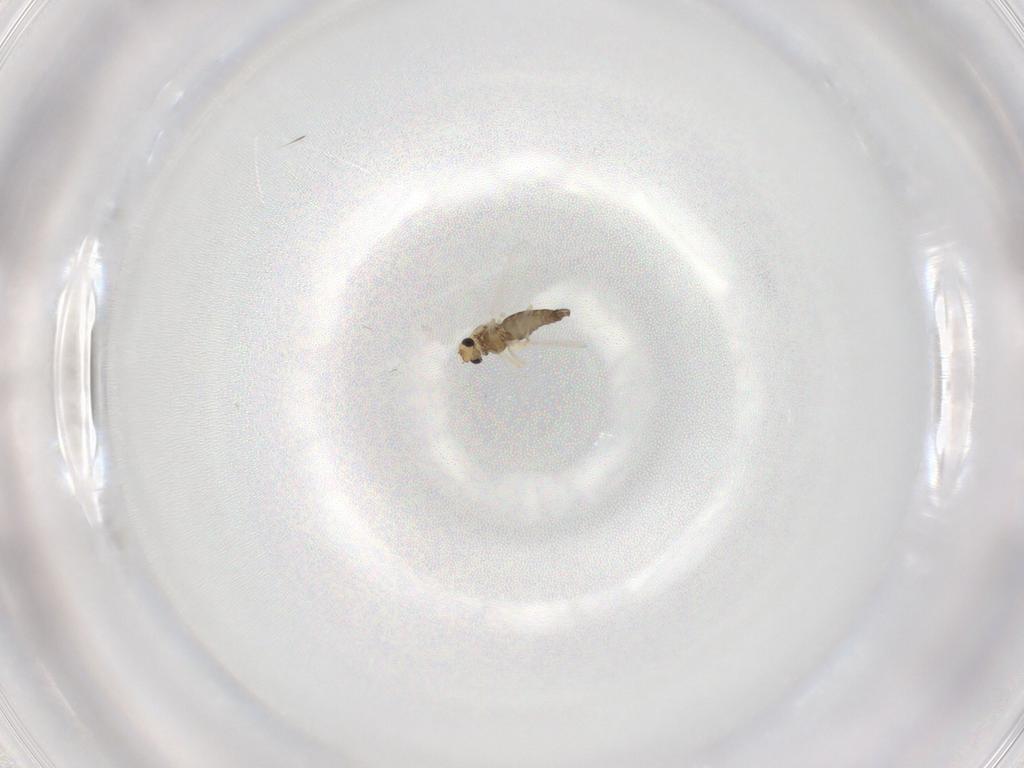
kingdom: Animalia
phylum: Arthropoda
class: Insecta
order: Diptera
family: Chironomidae
